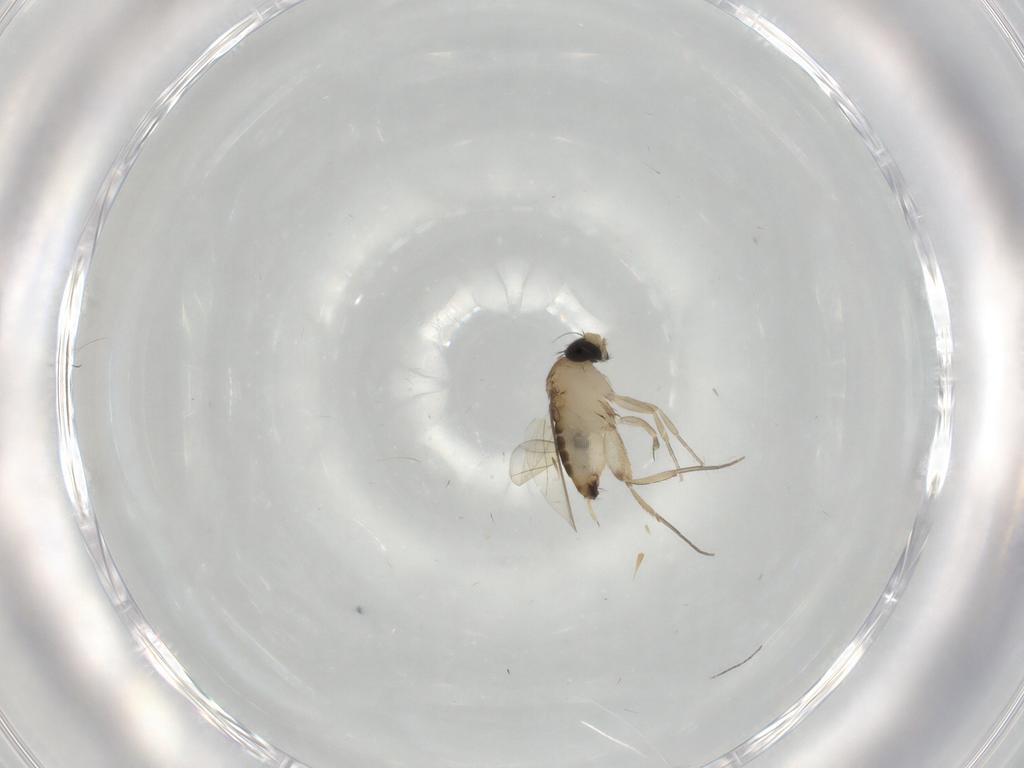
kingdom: Animalia
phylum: Arthropoda
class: Insecta
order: Diptera
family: Phoridae
